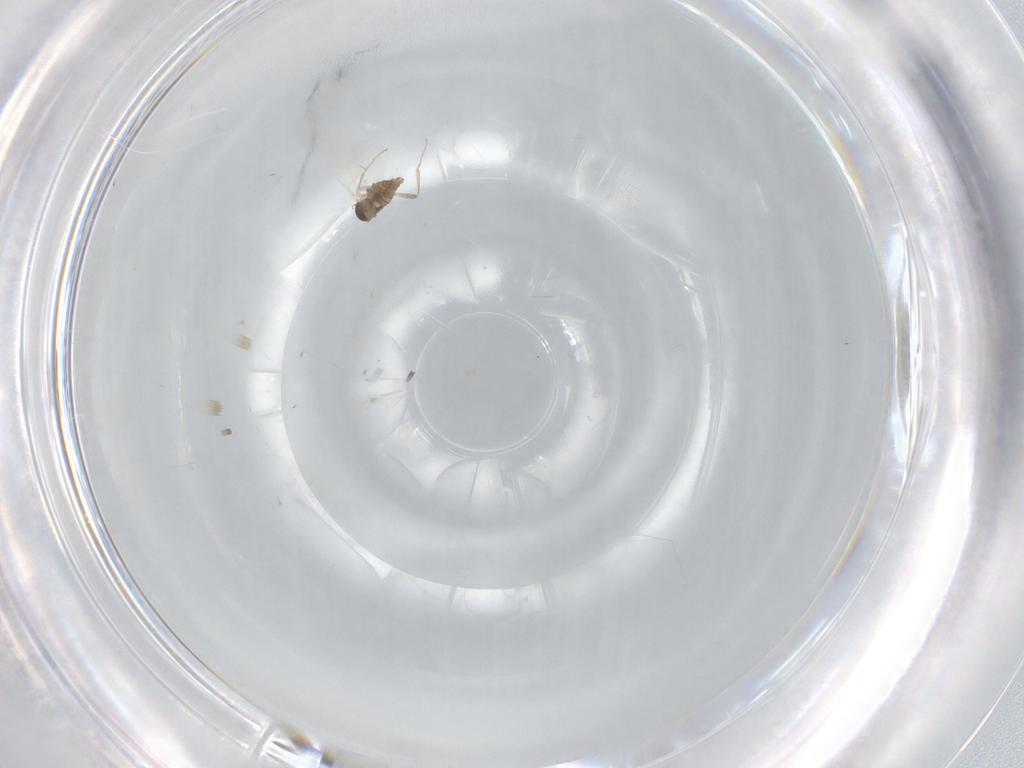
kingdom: Animalia
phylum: Arthropoda
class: Insecta
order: Diptera
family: Cecidomyiidae
